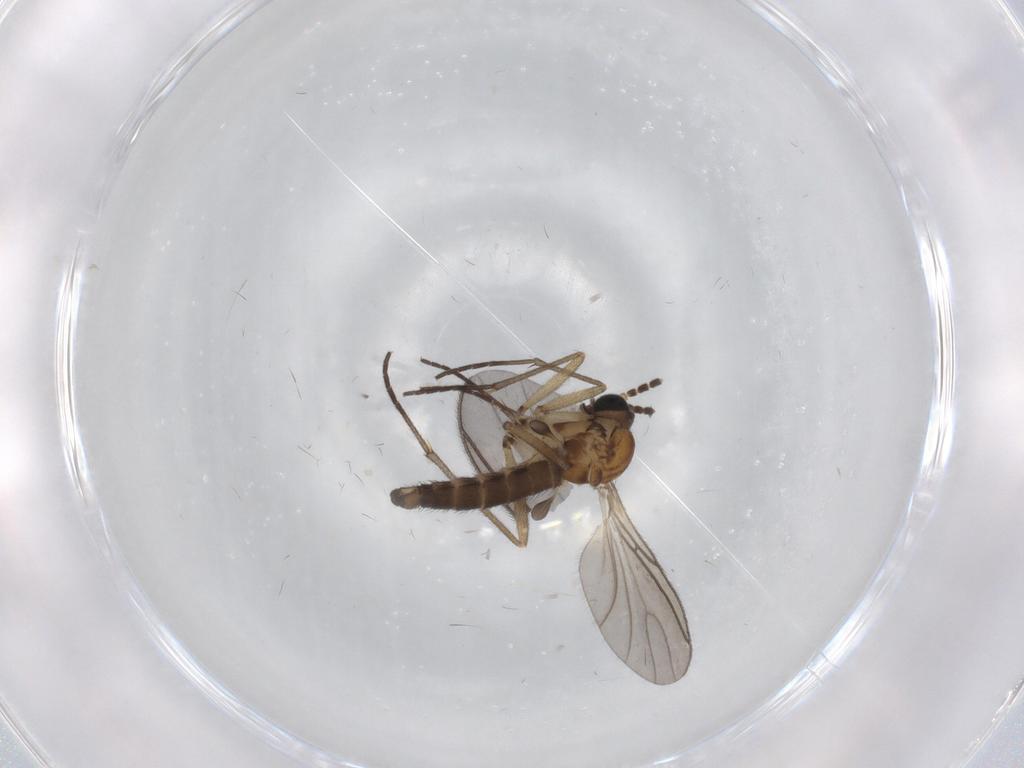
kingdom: Animalia
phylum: Arthropoda
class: Insecta
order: Diptera
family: Sciaridae
